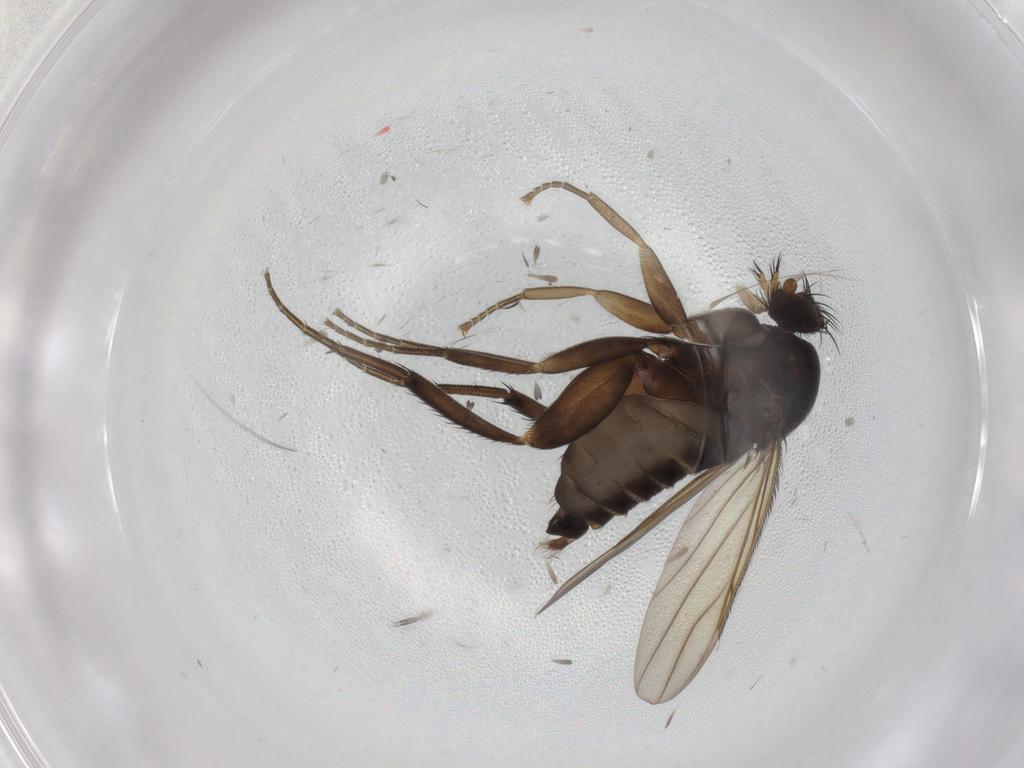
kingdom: Animalia
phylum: Arthropoda
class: Insecta
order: Diptera
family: Phoridae
